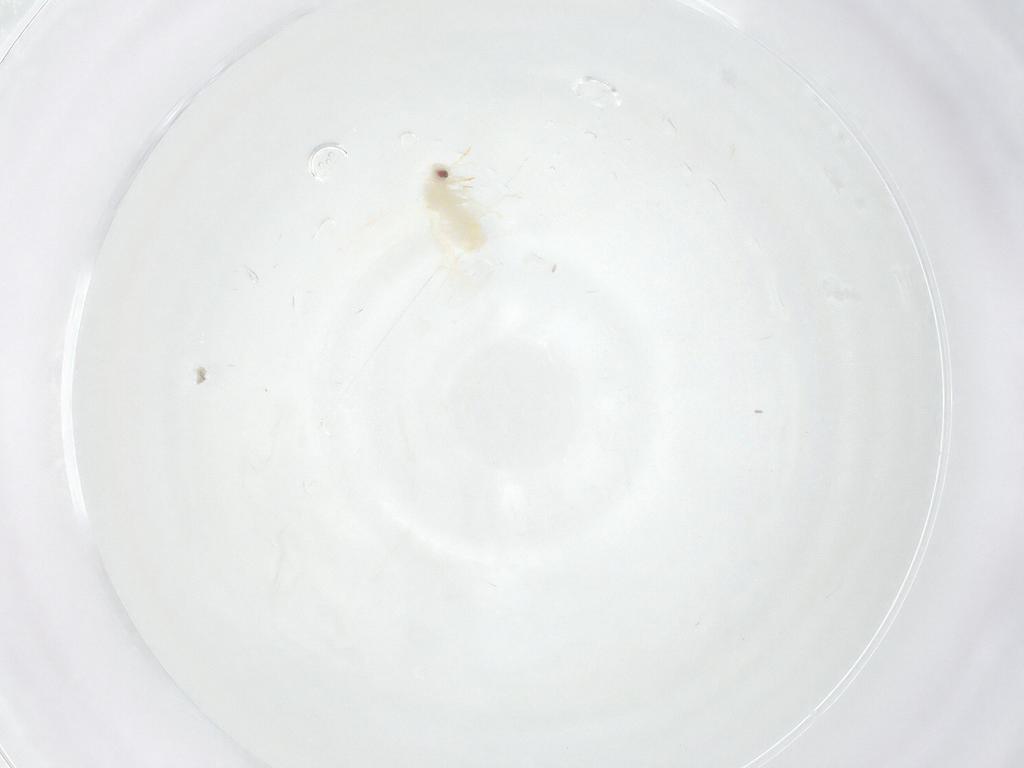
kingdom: Animalia
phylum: Arthropoda
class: Insecta
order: Hemiptera
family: Aleyrodidae
